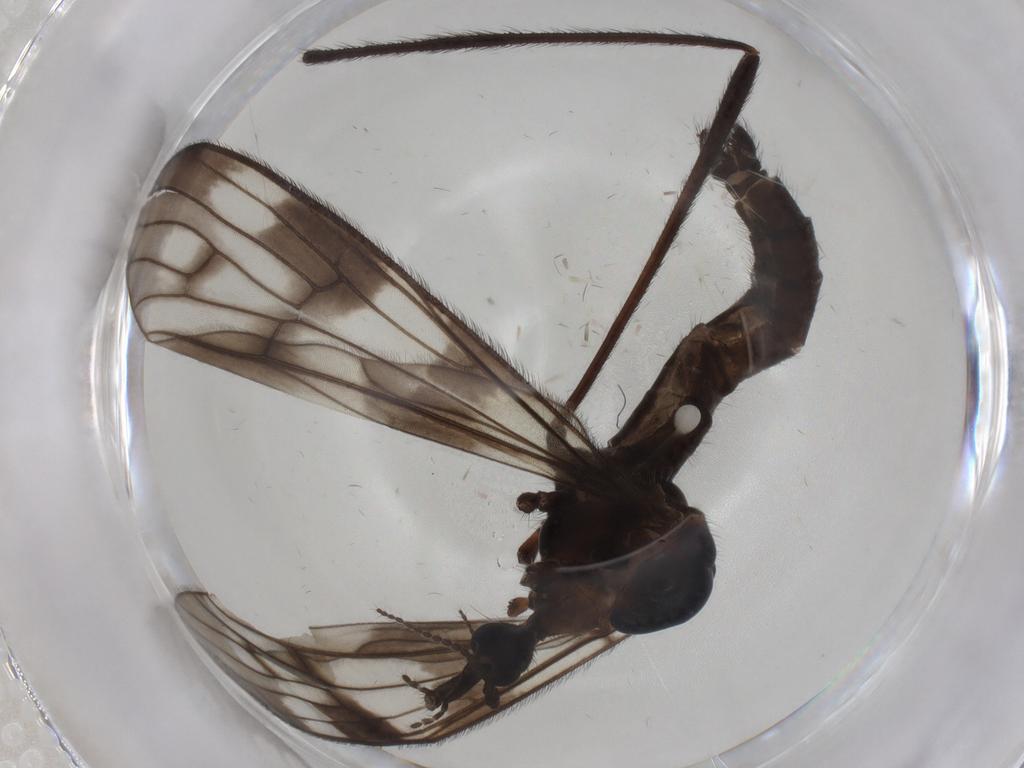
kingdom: Animalia
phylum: Arthropoda
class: Insecta
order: Diptera
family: Limoniidae
